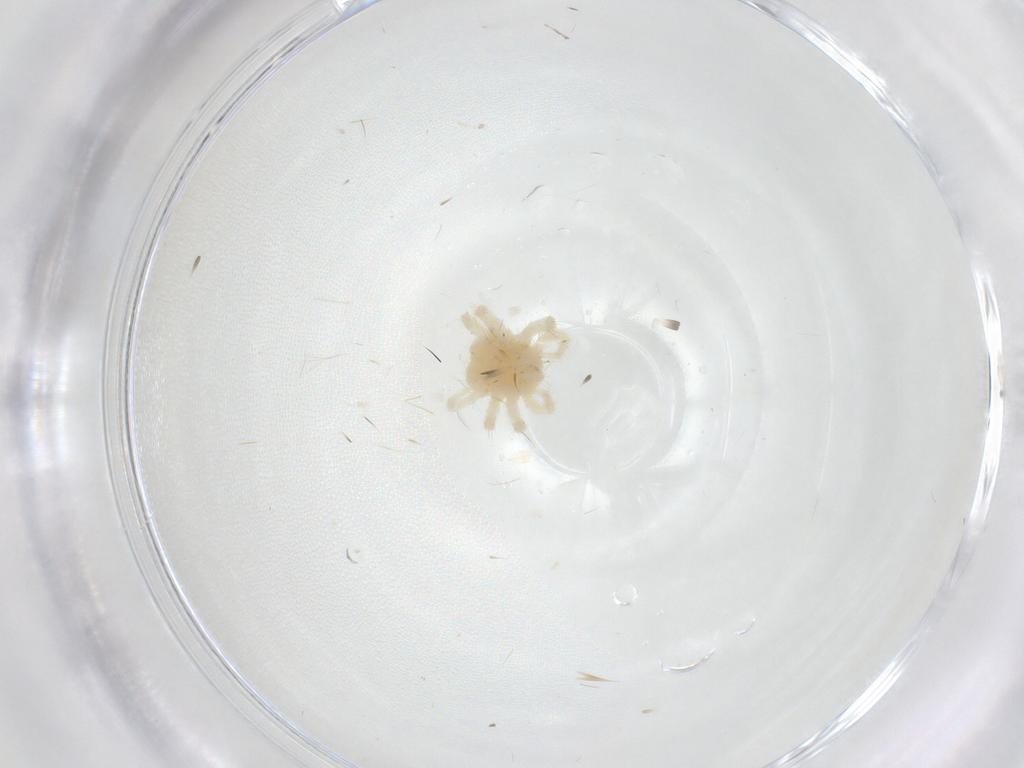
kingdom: Animalia
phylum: Arthropoda
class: Arachnida
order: Trombidiformes
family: Anystidae
